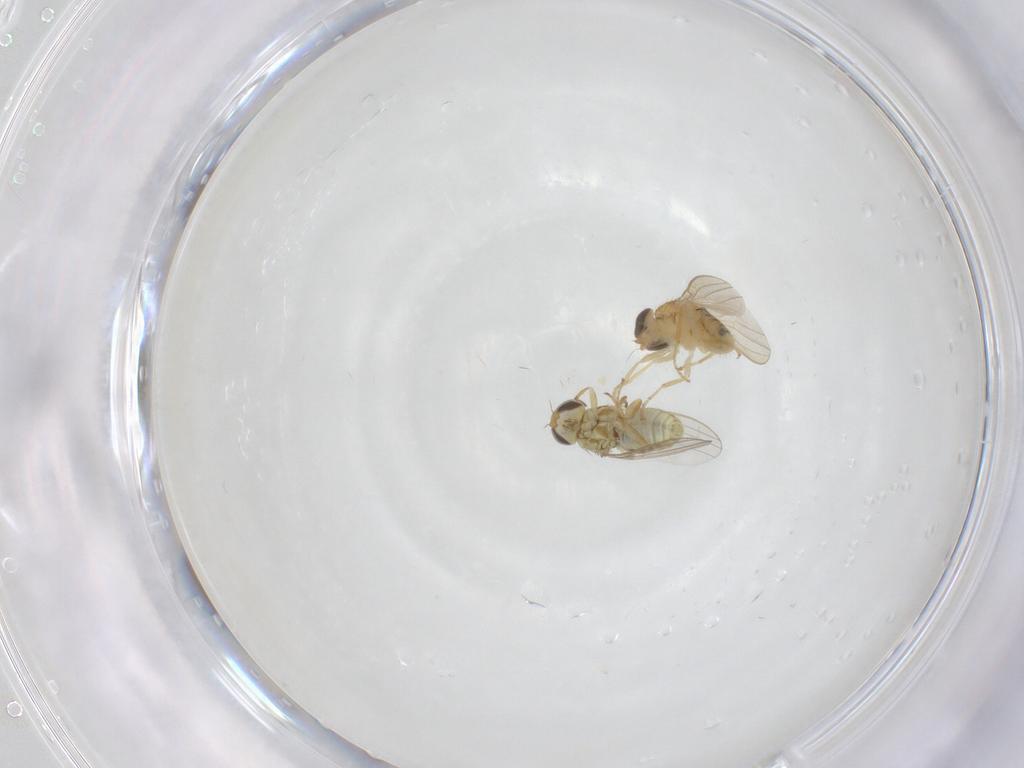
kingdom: Animalia
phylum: Arthropoda
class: Insecta
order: Diptera
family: Chyromyidae
